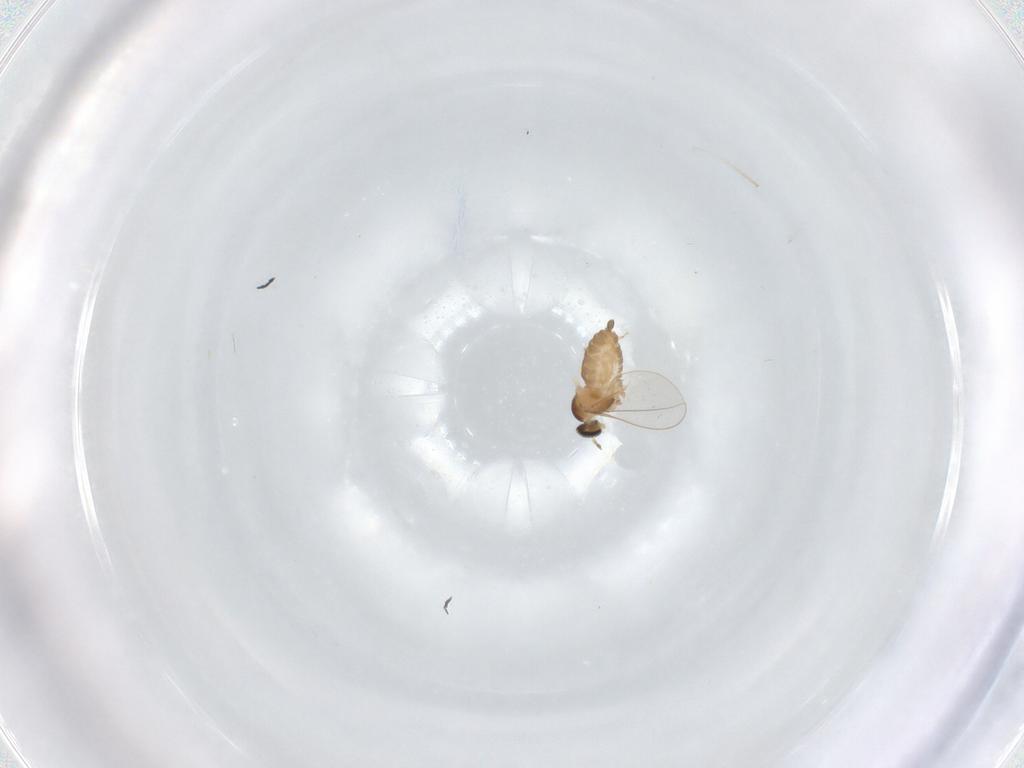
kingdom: Animalia
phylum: Arthropoda
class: Insecta
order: Diptera
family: Cecidomyiidae
